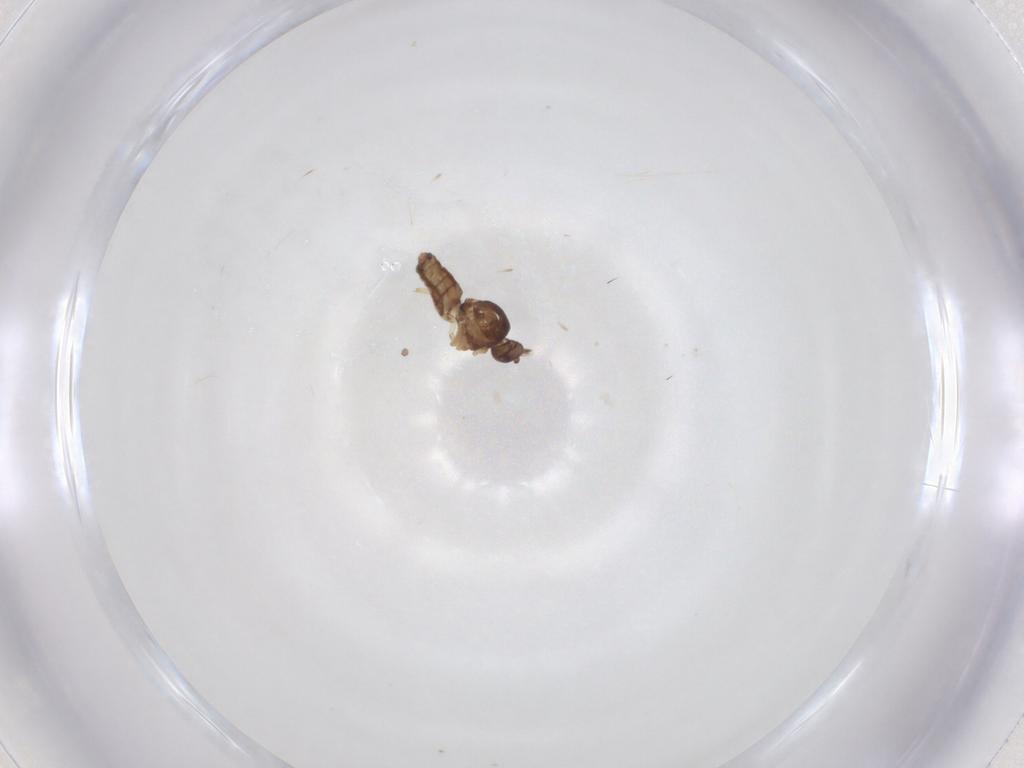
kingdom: Animalia
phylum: Arthropoda
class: Insecta
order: Diptera
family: Ceratopogonidae
